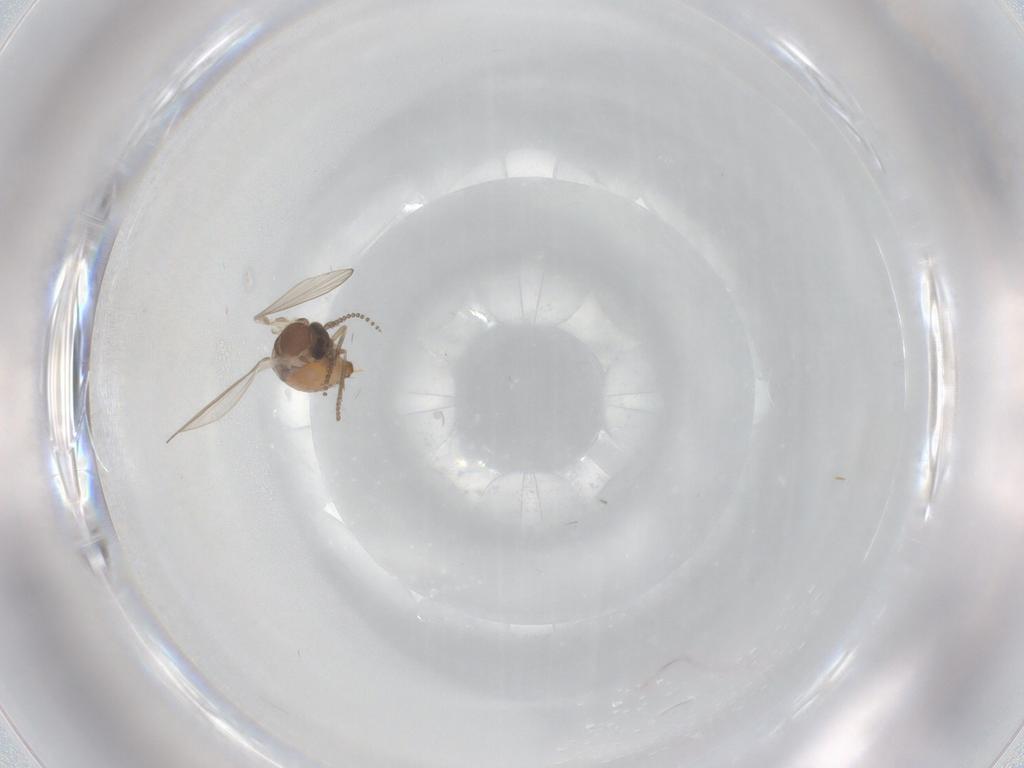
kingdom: Animalia
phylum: Arthropoda
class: Insecta
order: Diptera
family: Psychodidae
